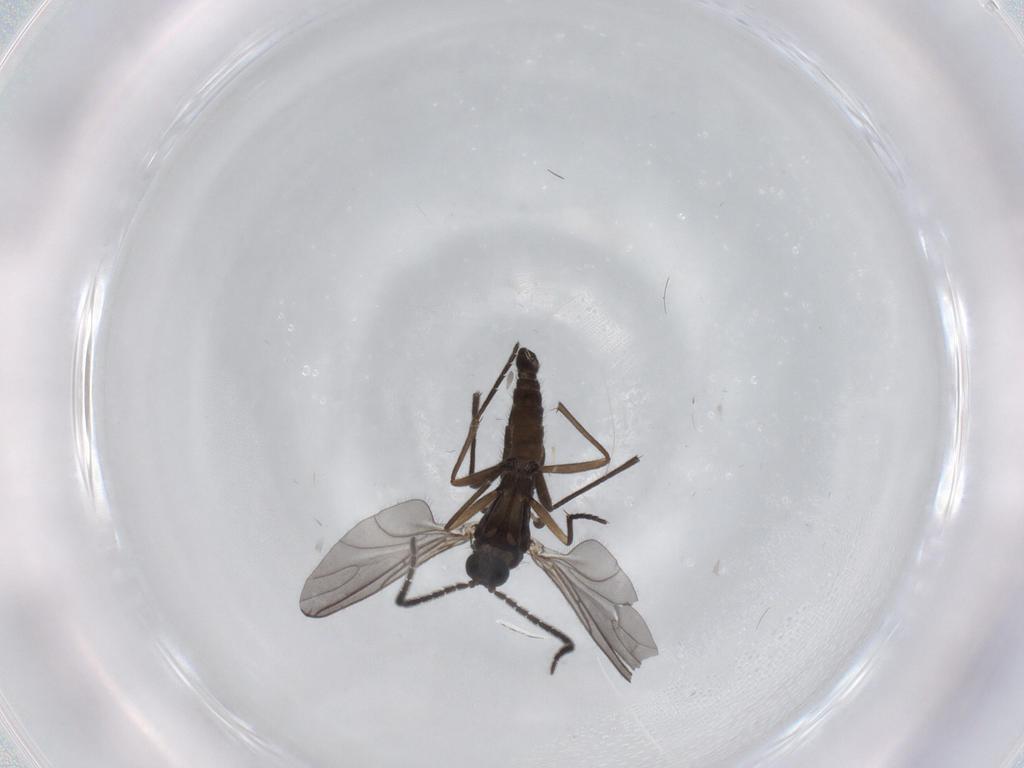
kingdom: Animalia
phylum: Arthropoda
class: Insecta
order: Diptera
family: Sciaridae
